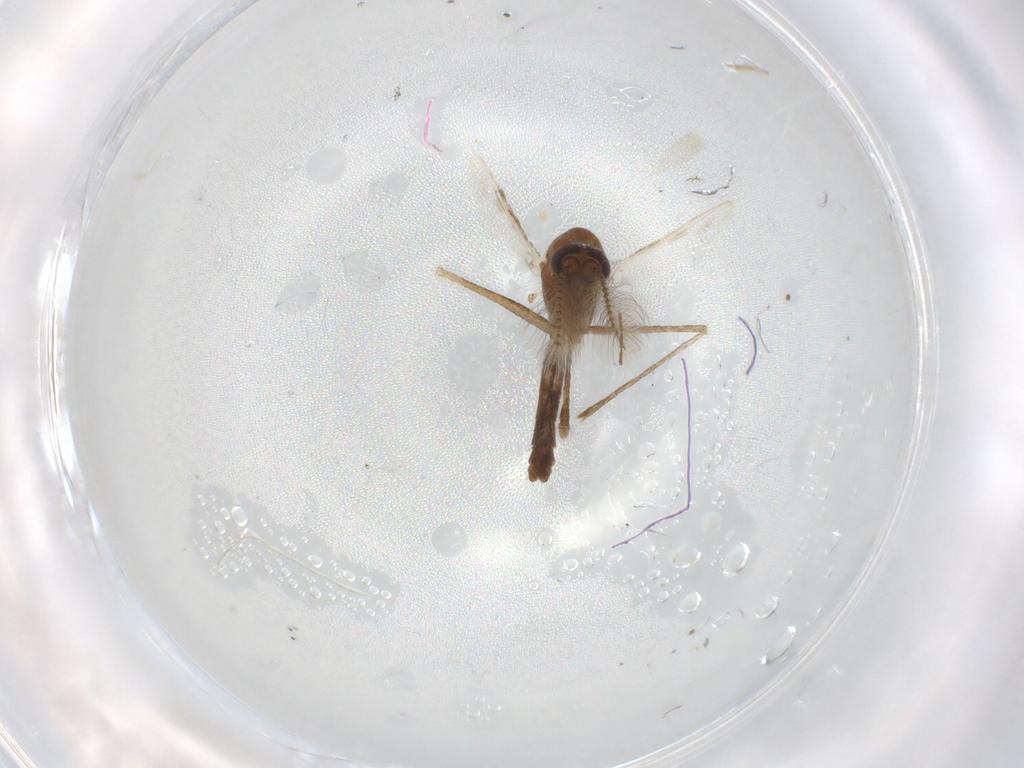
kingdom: Animalia
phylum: Arthropoda
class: Insecta
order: Diptera
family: Culicidae
